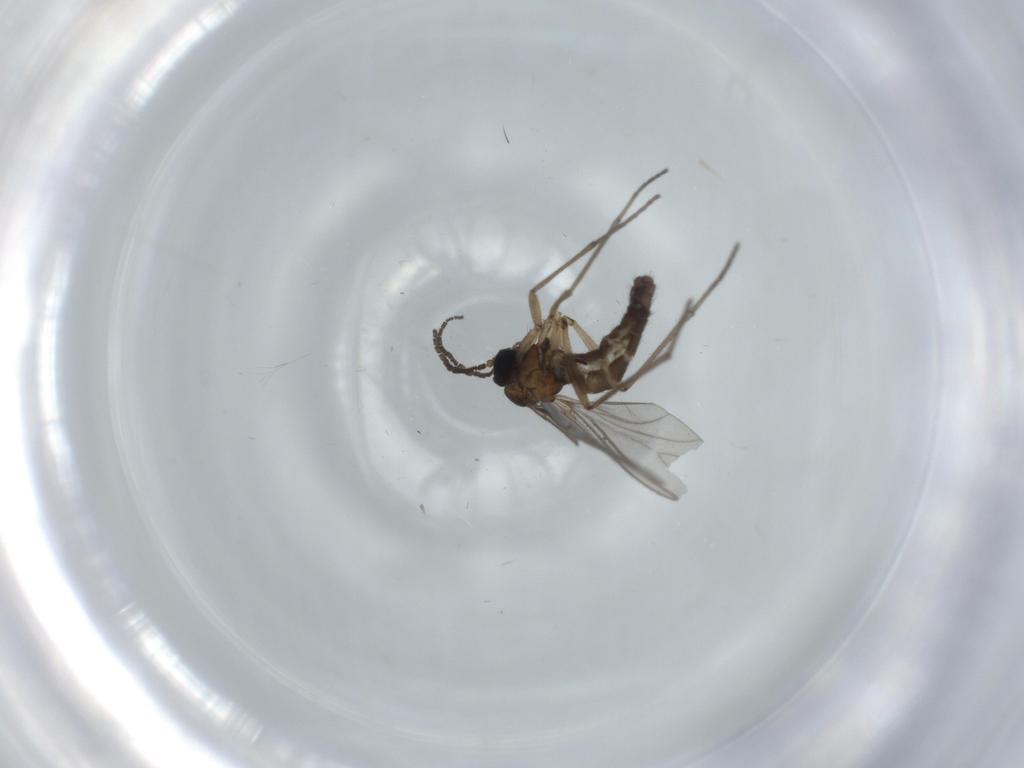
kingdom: Animalia
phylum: Arthropoda
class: Insecta
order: Diptera
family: Sciaridae
